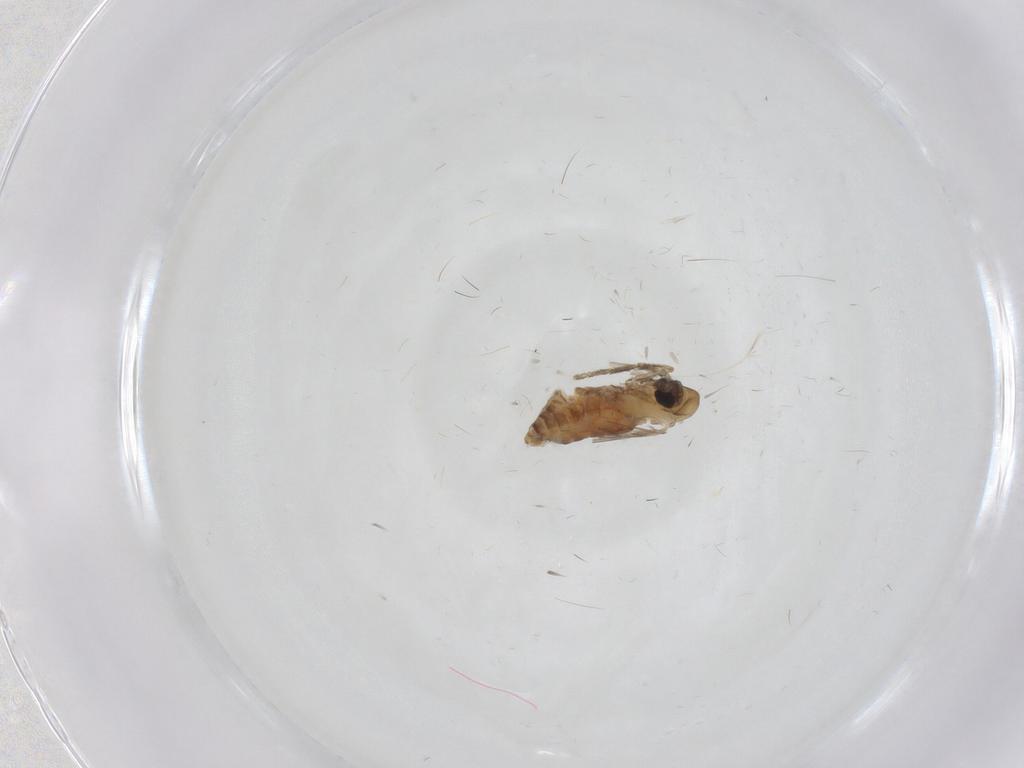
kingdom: Animalia
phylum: Arthropoda
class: Insecta
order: Diptera
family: Psychodidae
